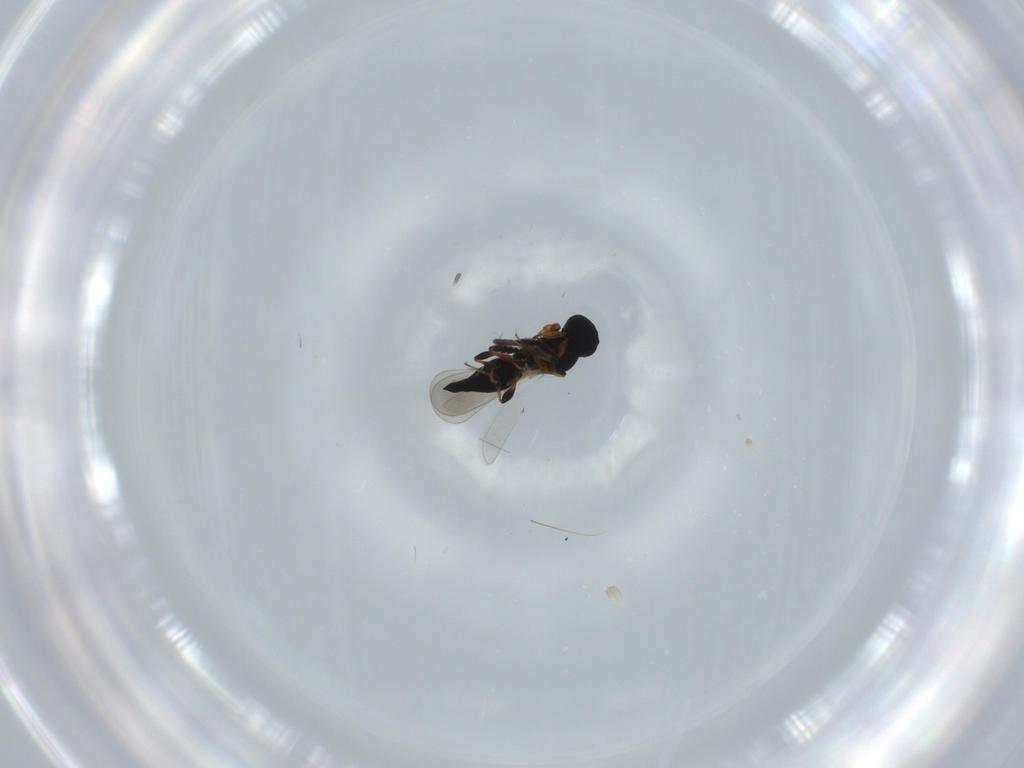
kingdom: Animalia
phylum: Arthropoda
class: Insecta
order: Hymenoptera
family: Platygastridae
